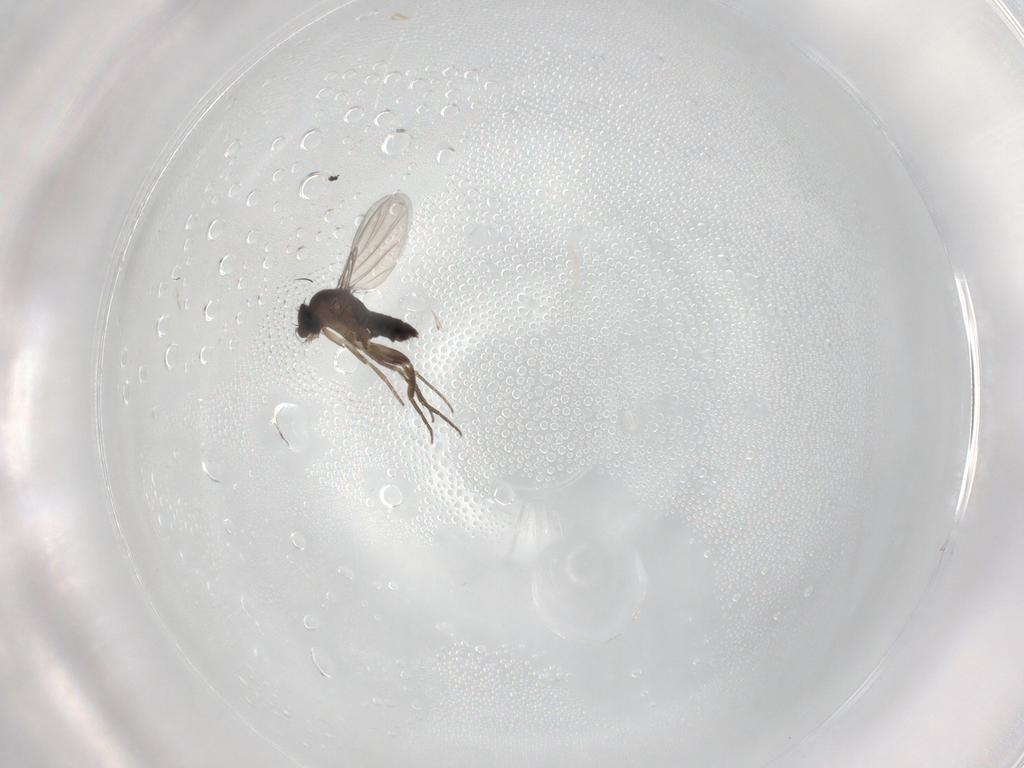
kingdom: Animalia
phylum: Arthropoda
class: Insecta
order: Diptera
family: Phoridae
